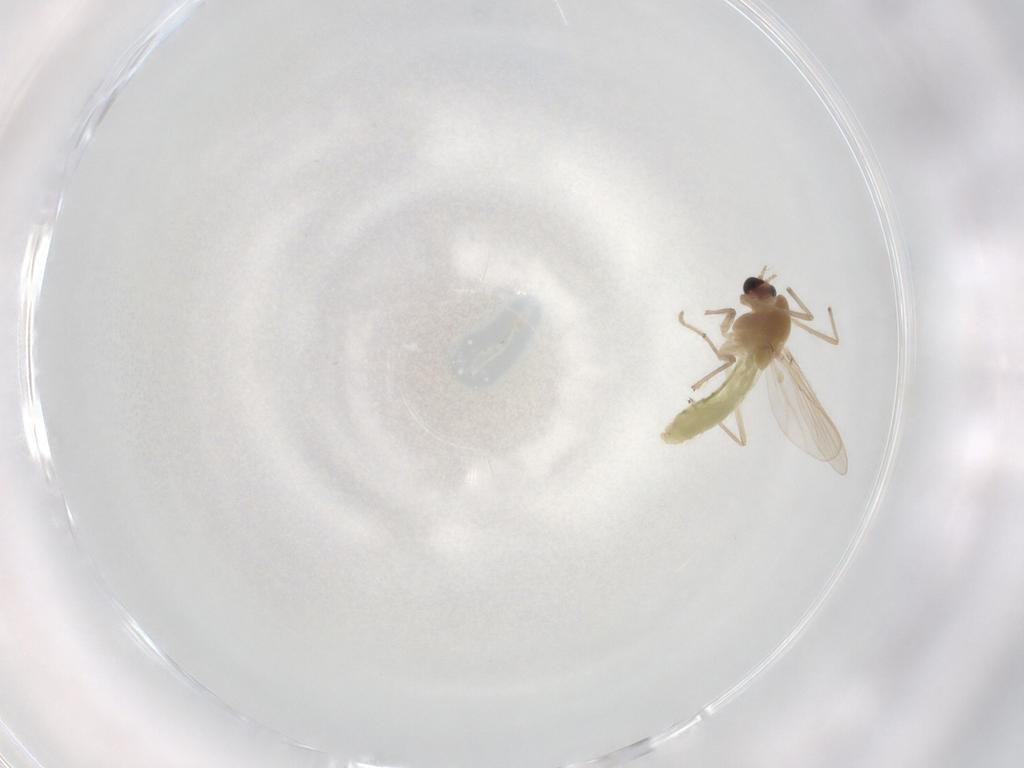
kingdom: Animalia
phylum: Arthropoda
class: Insecta
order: Diptera
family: Chironomidae
